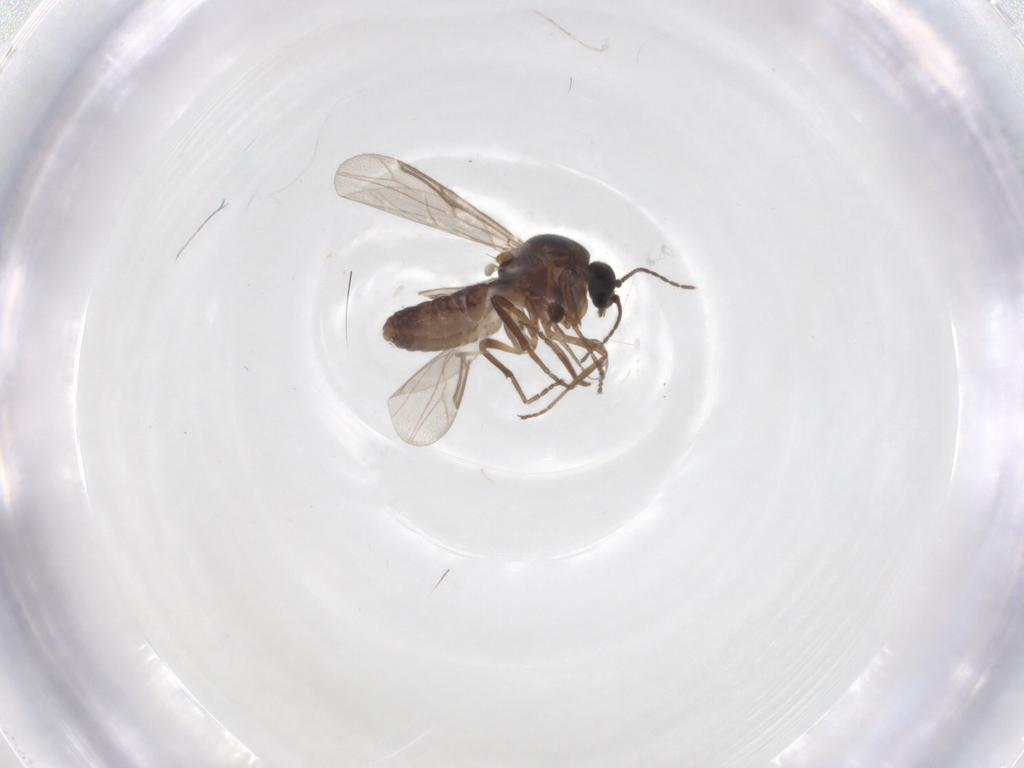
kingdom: Animalia
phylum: Arthropoda
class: Insecta
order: Diptera
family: Ceratopogonidae
